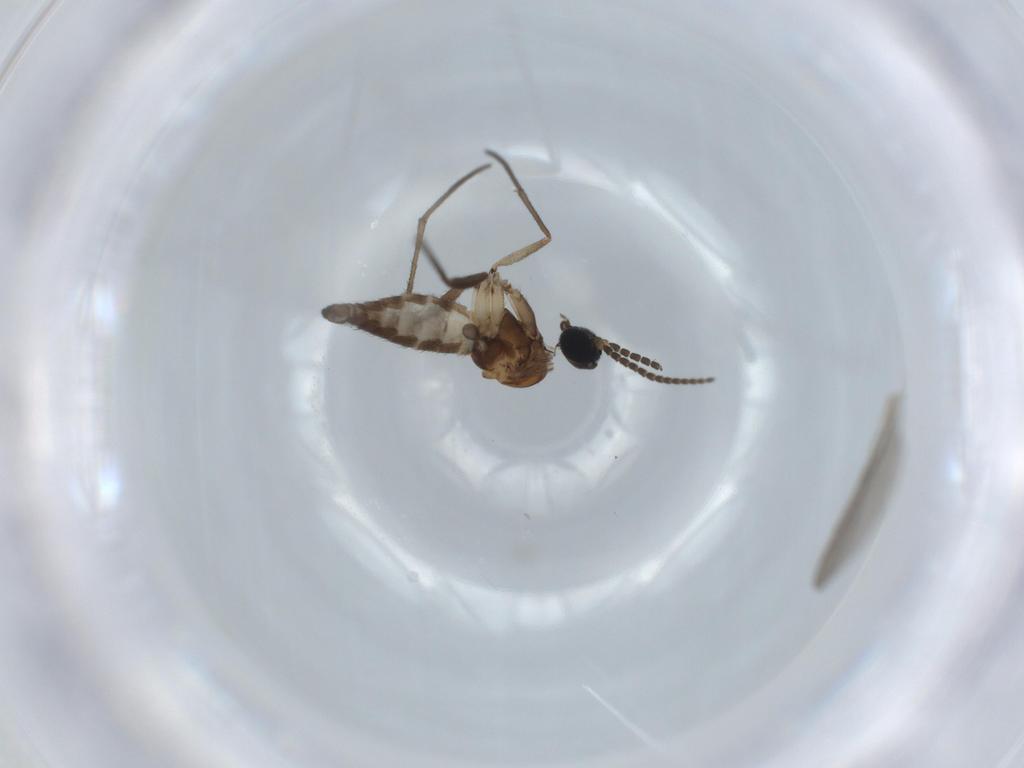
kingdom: Animalia
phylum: Arthropoda
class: Insecta
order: Diptera
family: Sciaridae
